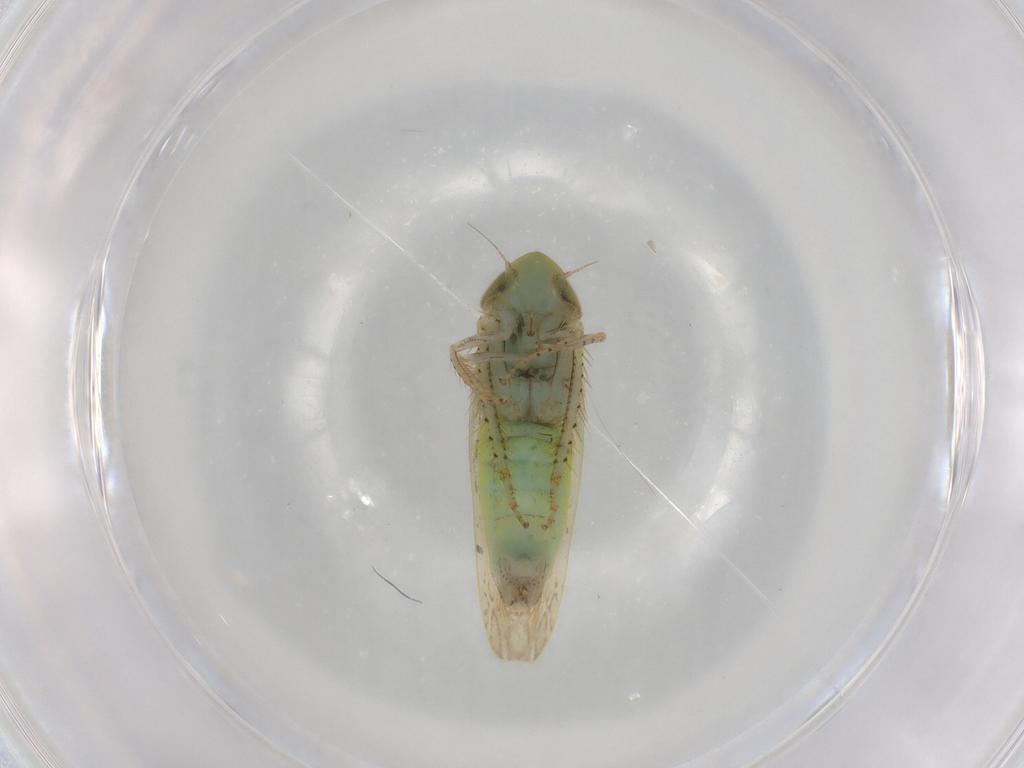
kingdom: Animalia
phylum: Arthropoda
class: Insecta
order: Hemiptera
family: Cicadellidae
